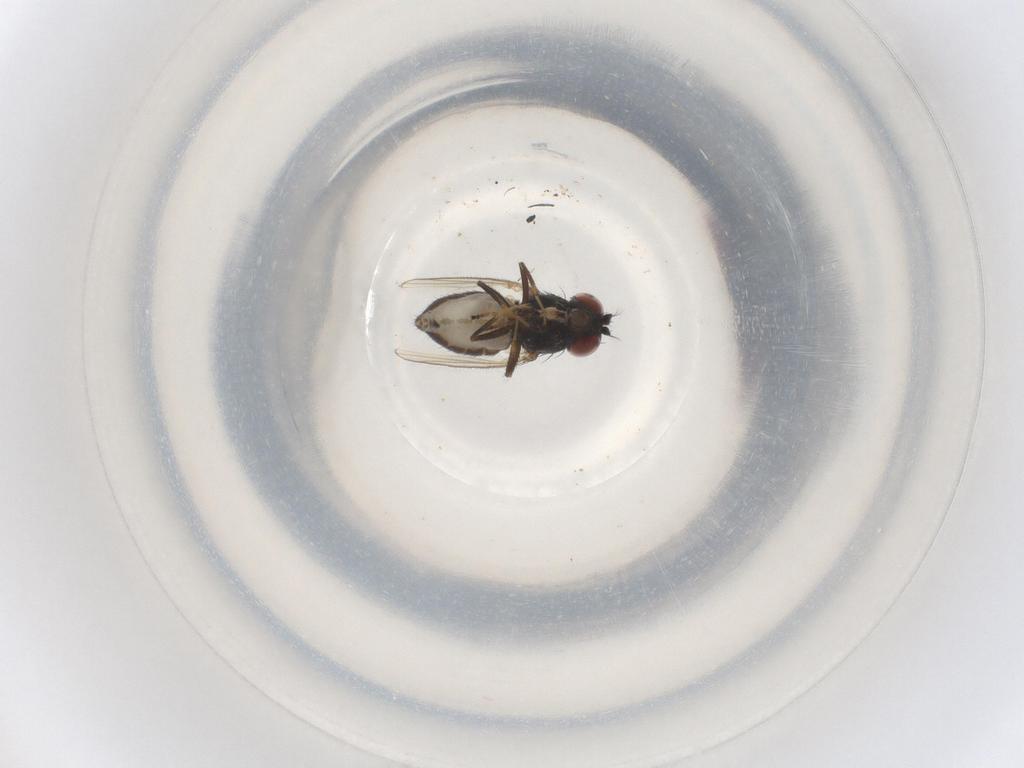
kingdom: Animalia
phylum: Arthropoda
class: Insecta
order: Diptera
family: Ephydridae
